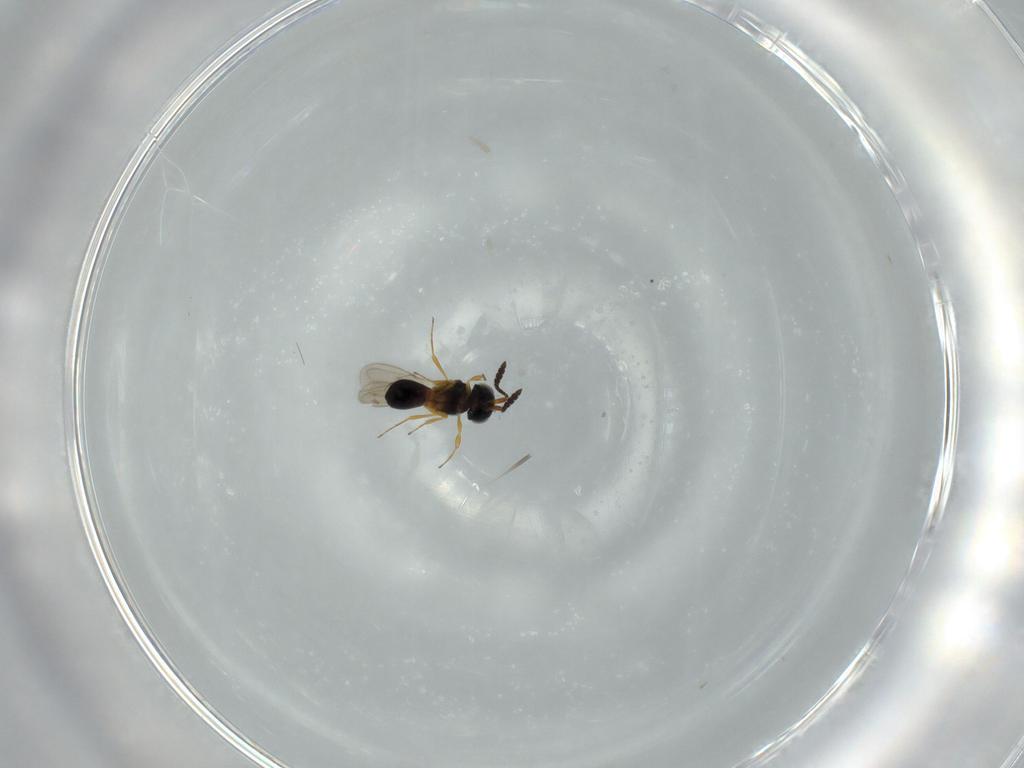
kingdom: Animalia
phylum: Arthropoda
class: Insecta
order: Hymenoptera
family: Scelionidae
